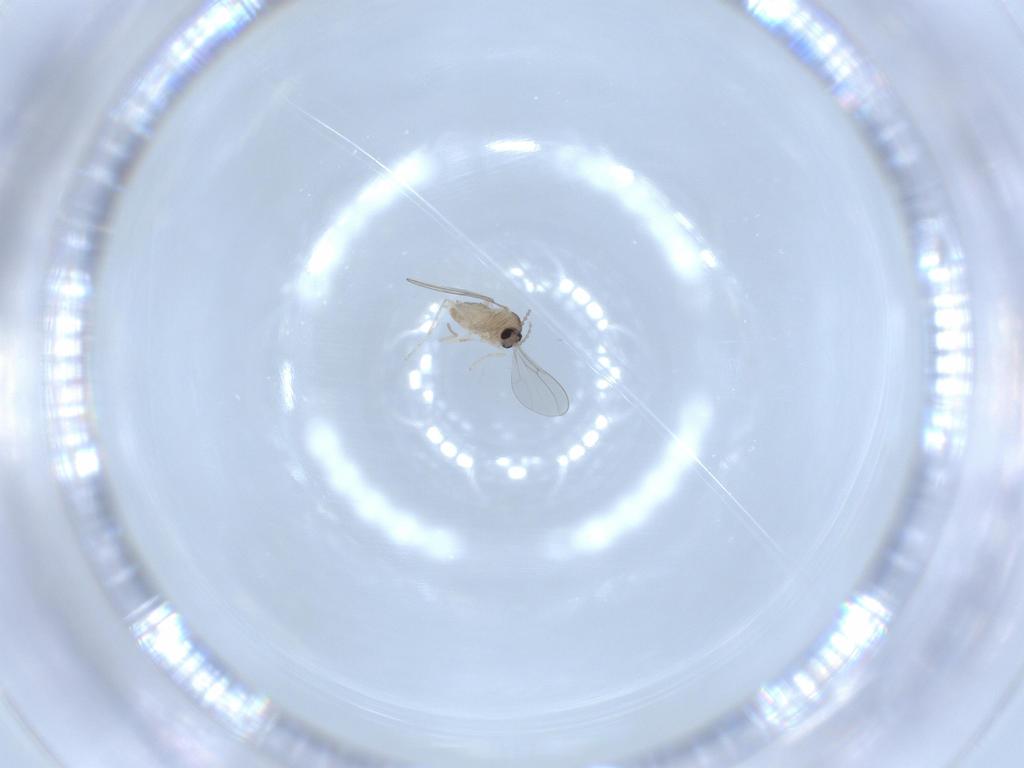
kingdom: Animalia
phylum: Arthropoda
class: Insecta
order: Diptera
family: Cecidomyiidae
